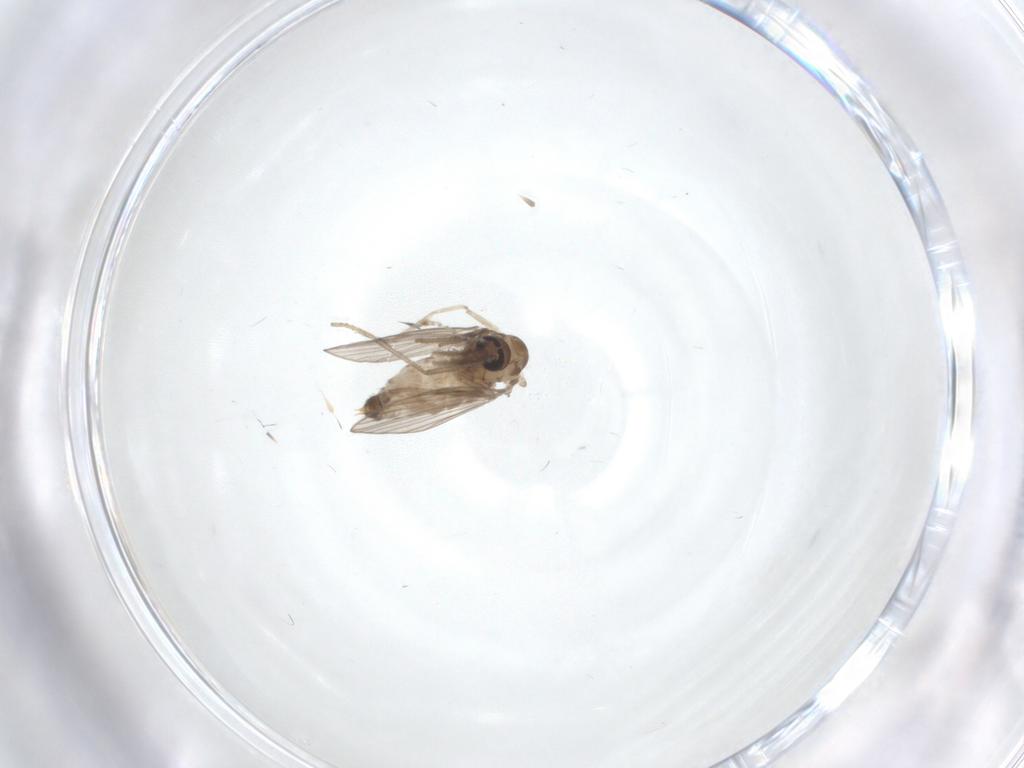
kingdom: Animalia
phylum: Arthropoda
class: Insecta
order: Diptera
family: Psychodidae
